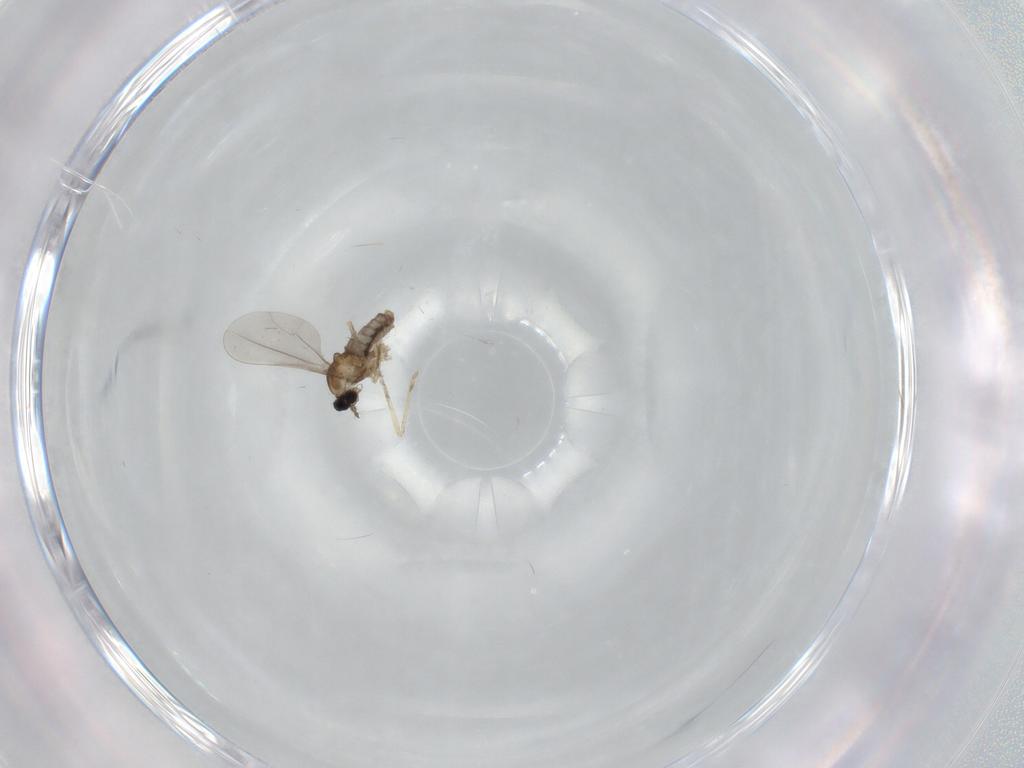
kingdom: Animalia
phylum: Arthropoda
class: Insecta
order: Diptera
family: Cecidomyiidae
